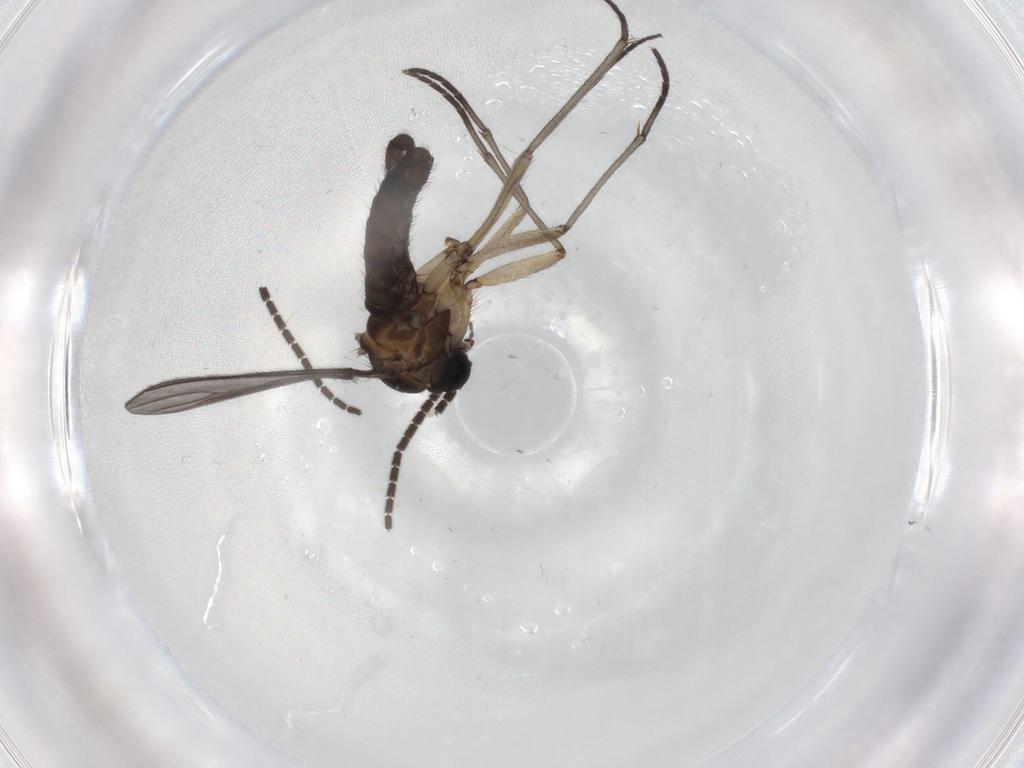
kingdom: Animalia
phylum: Arthropoda
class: Insecta
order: Diptera
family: Sciaridae
